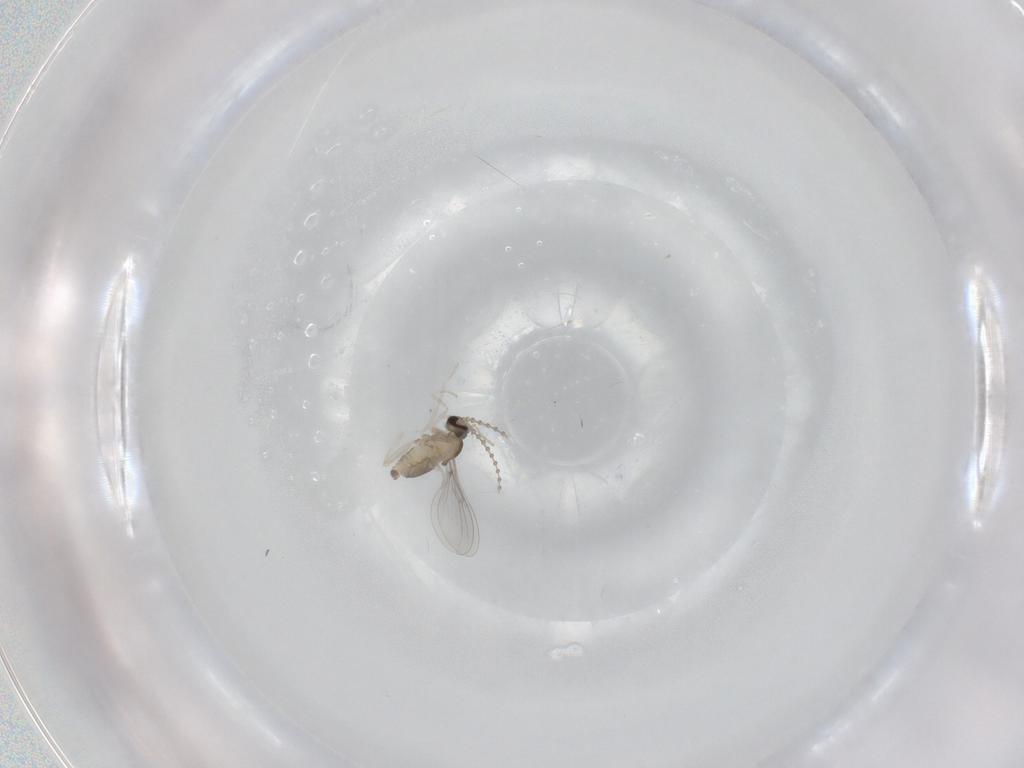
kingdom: Animalia
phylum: Arthropoda
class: Insecta
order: Diptera
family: Cecidomyiidae
